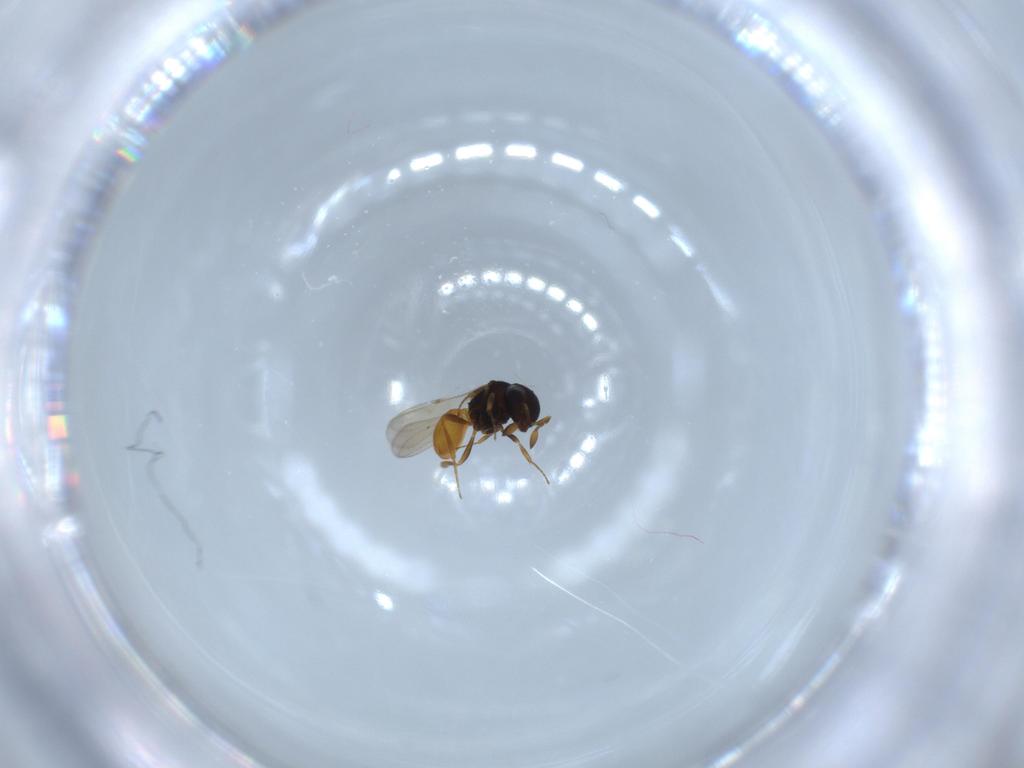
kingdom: Animalia
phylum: Arthropoda
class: Insecta
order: Hymenoptera
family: Scelionidae
